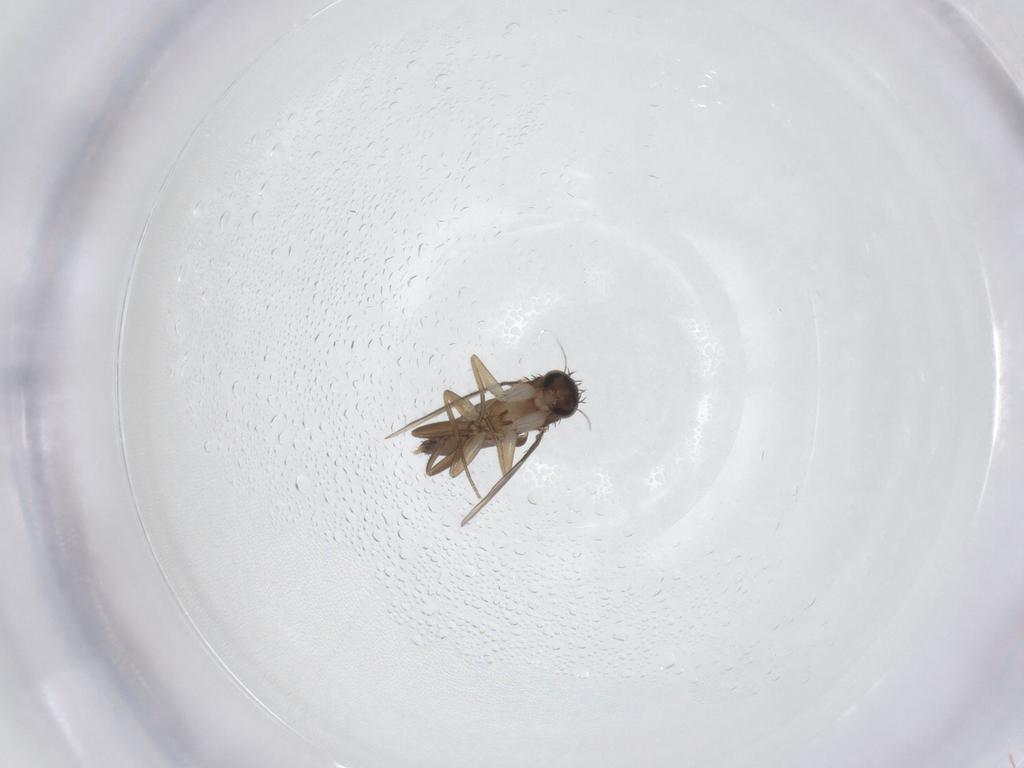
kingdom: Animalia
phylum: Arthropoda
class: Insecta
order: Diptera
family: Phoridae
